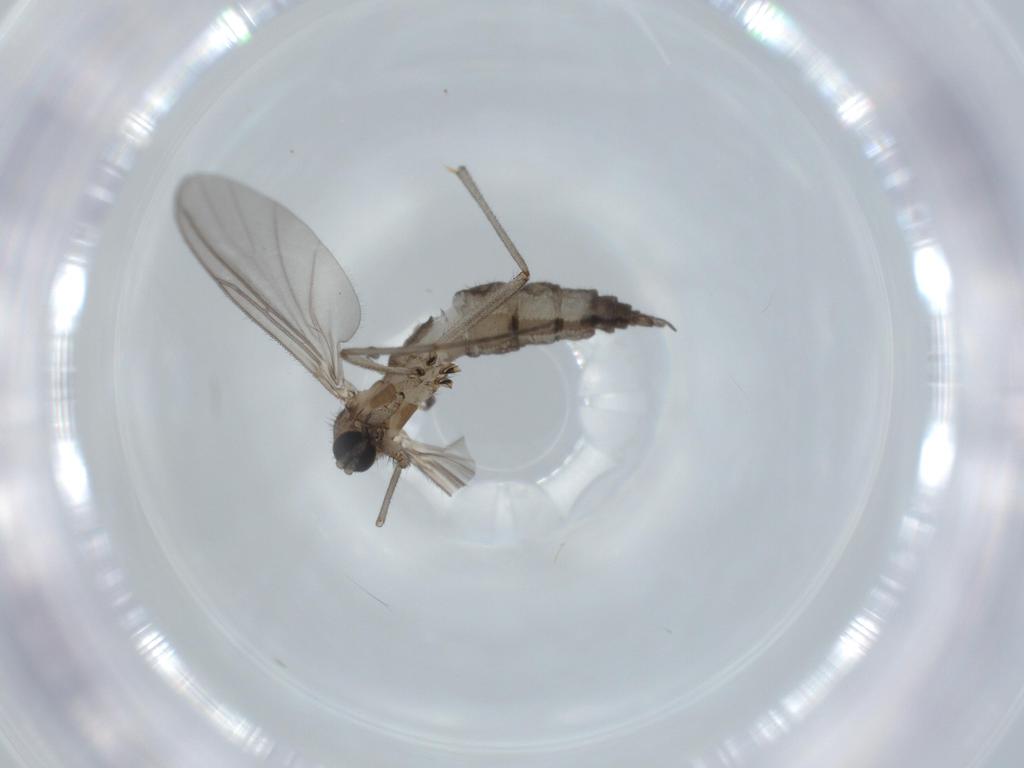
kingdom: Animalia
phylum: Arthropoda
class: Insecta
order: Diptera
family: Sciaridae
